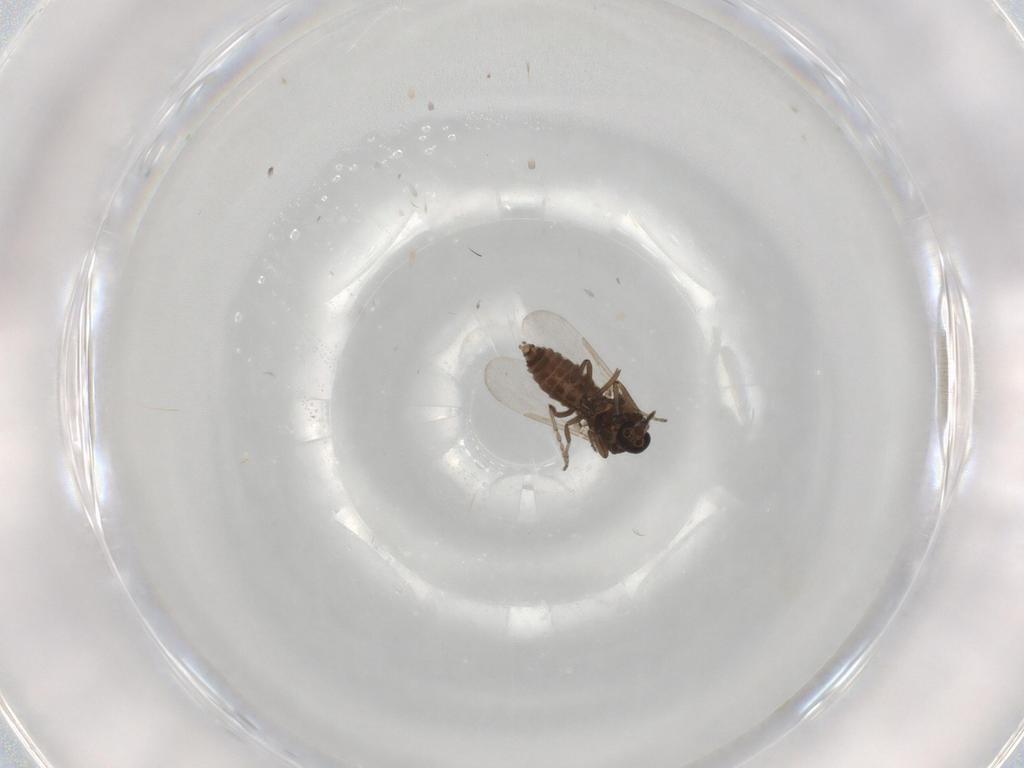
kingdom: Animalia
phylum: Arthropoda
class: Insecta
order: Diptera
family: Ceratopogonidae
